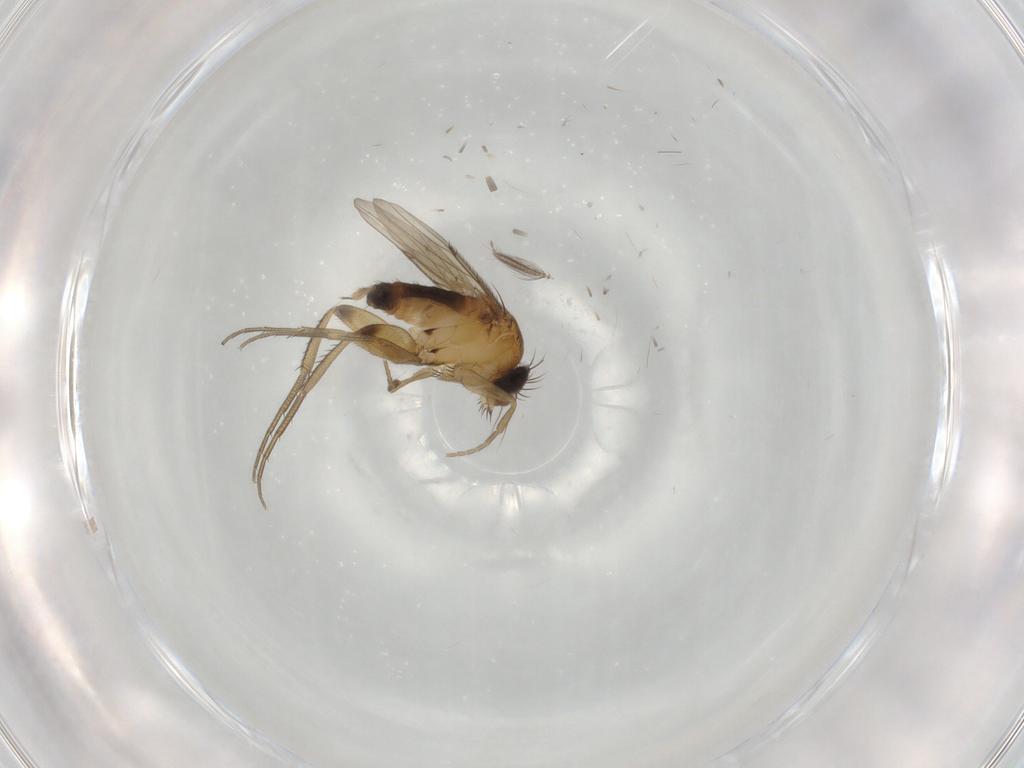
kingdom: Animalia
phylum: Arthropoda
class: Insecta
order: Diptera
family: Phoridae
